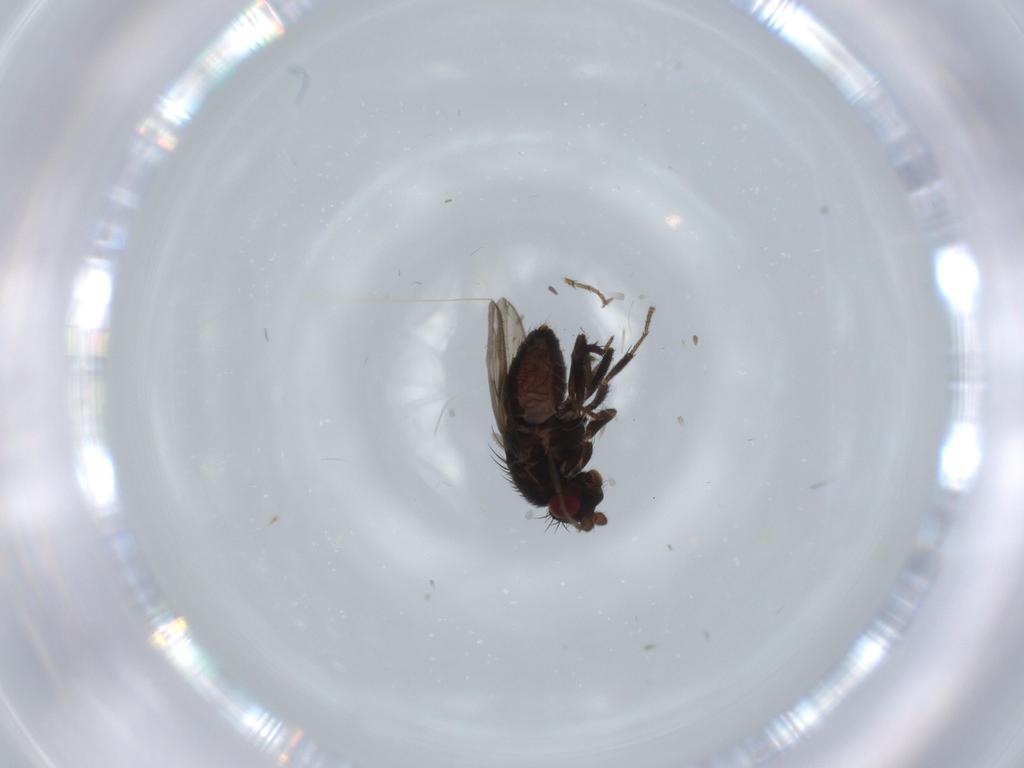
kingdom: Animalia
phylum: Arthropoda
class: Insecta
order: Diptera
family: Sphaeroceridae
